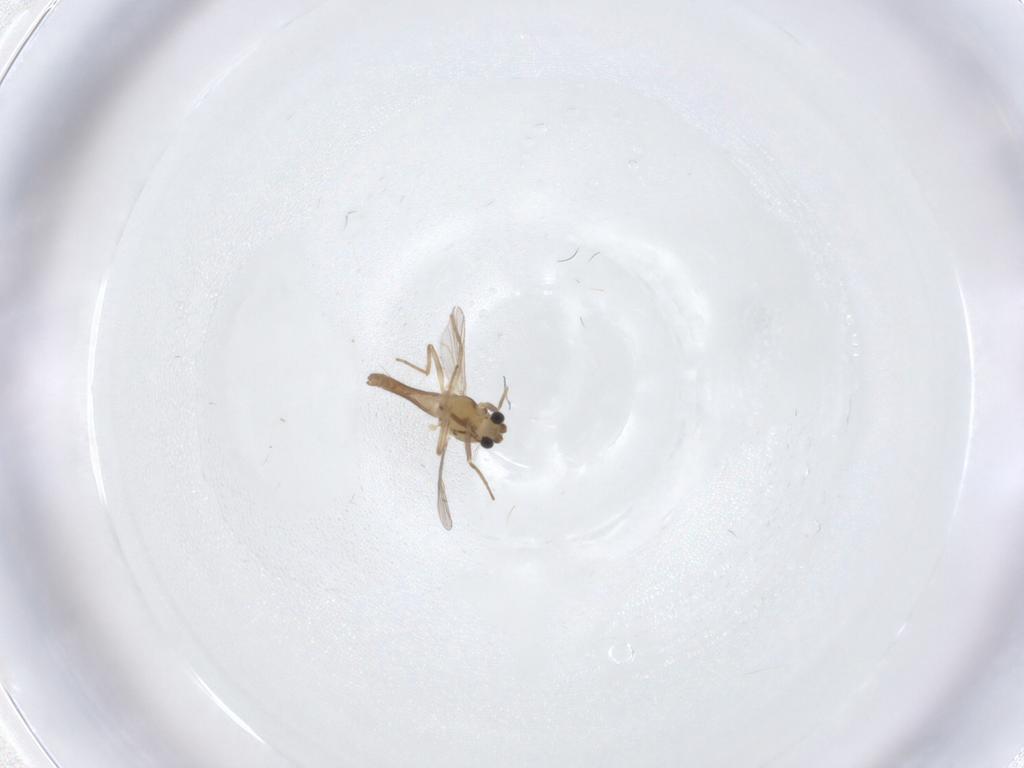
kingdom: Animalia
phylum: Arthropoda
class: Insecta
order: Diptera
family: Chironomidae
